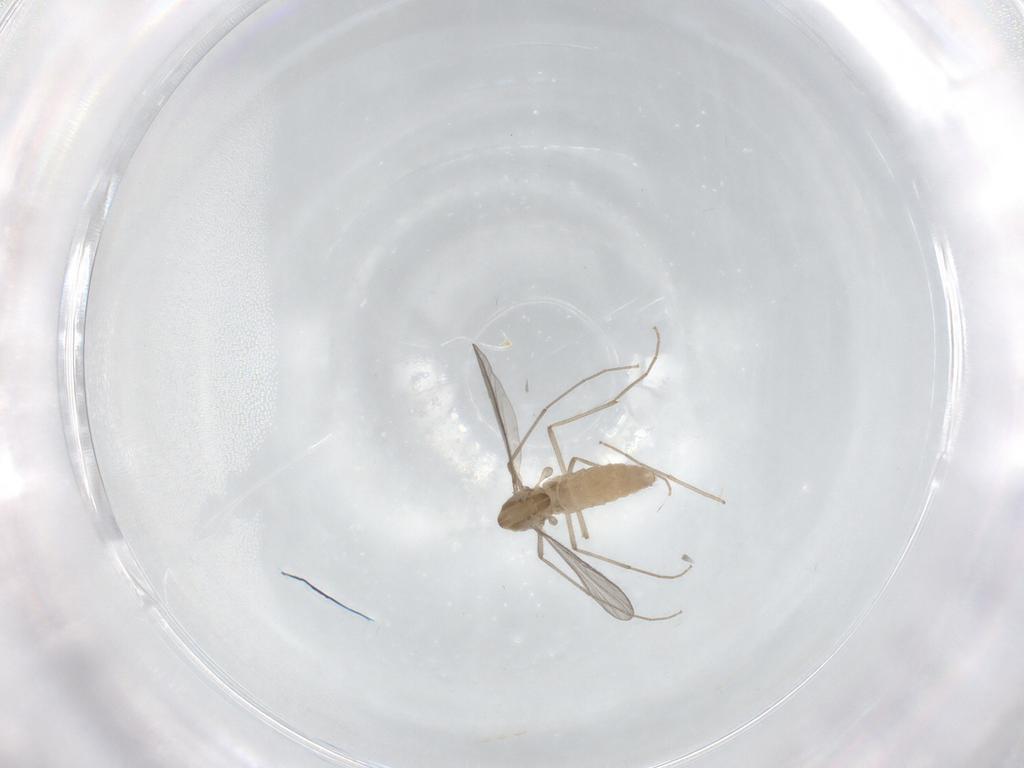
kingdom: Animalia
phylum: Arthropoda
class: Insecta
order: Diptera
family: Chironomidae
